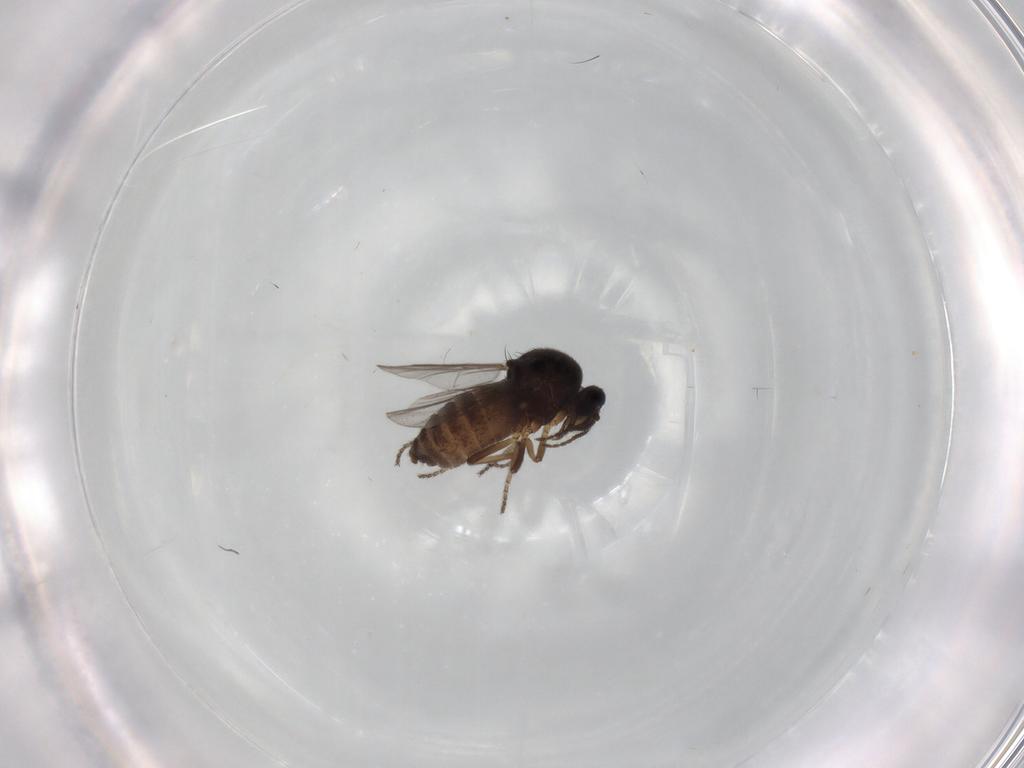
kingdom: Animalia
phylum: Arthropoda
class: Insecta
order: Diptera
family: Ceratopogonidae
